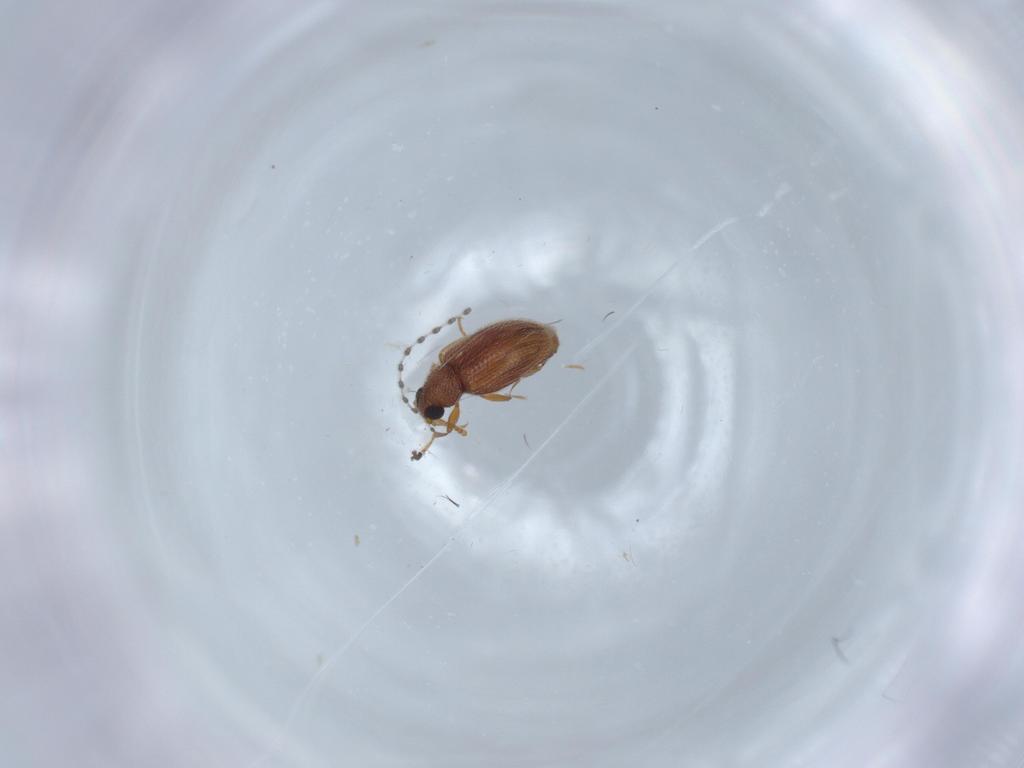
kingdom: Animalia
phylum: Arthropoda
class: Insecta
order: Coleoptera
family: Latridiidae
